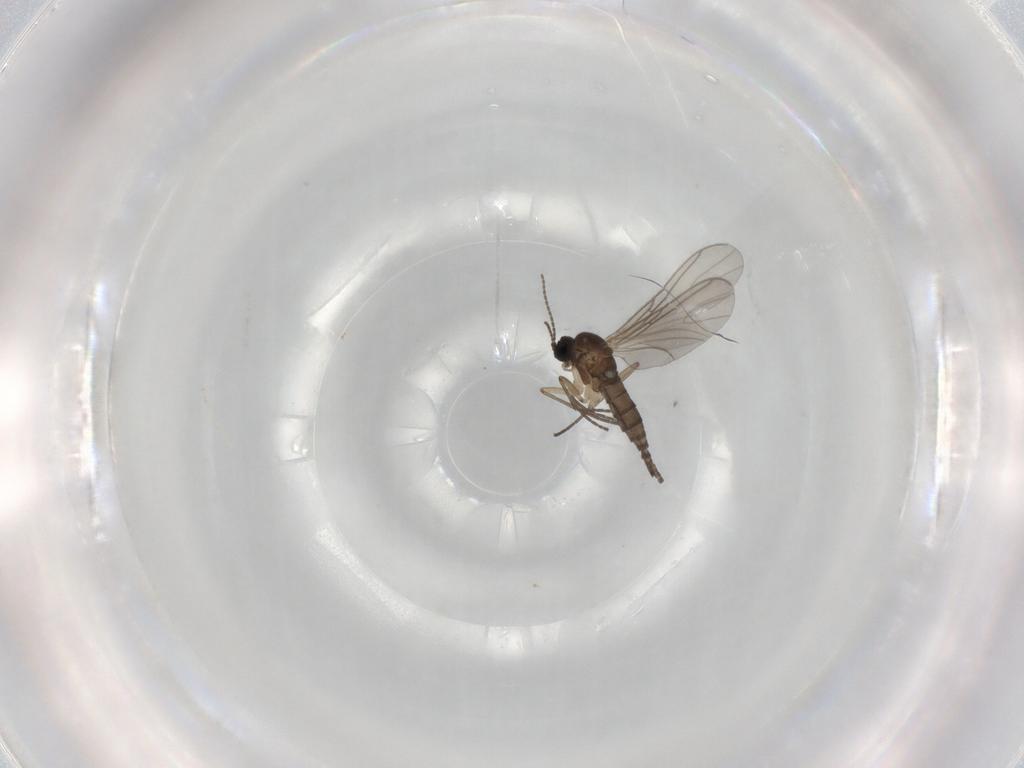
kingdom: Animalia
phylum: Arthropoda
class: Insecta
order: Diptera
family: Sciaridae
